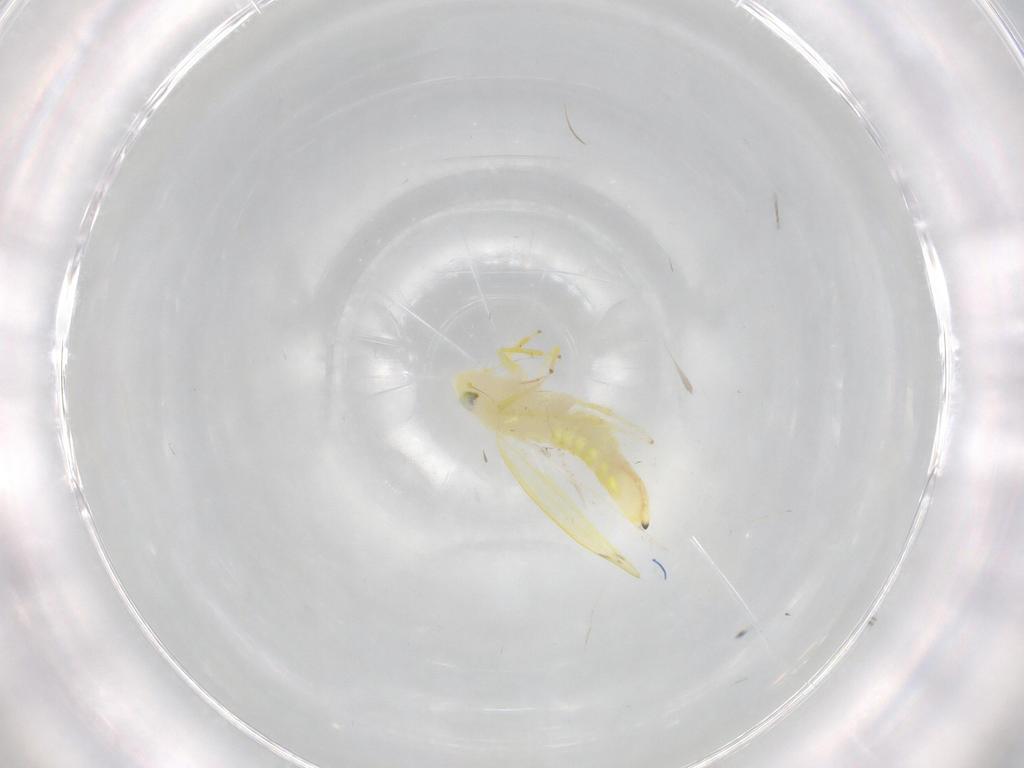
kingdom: Animalia
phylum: Arthropoda
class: Insecta
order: Hemiptera
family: Cicadellidae
